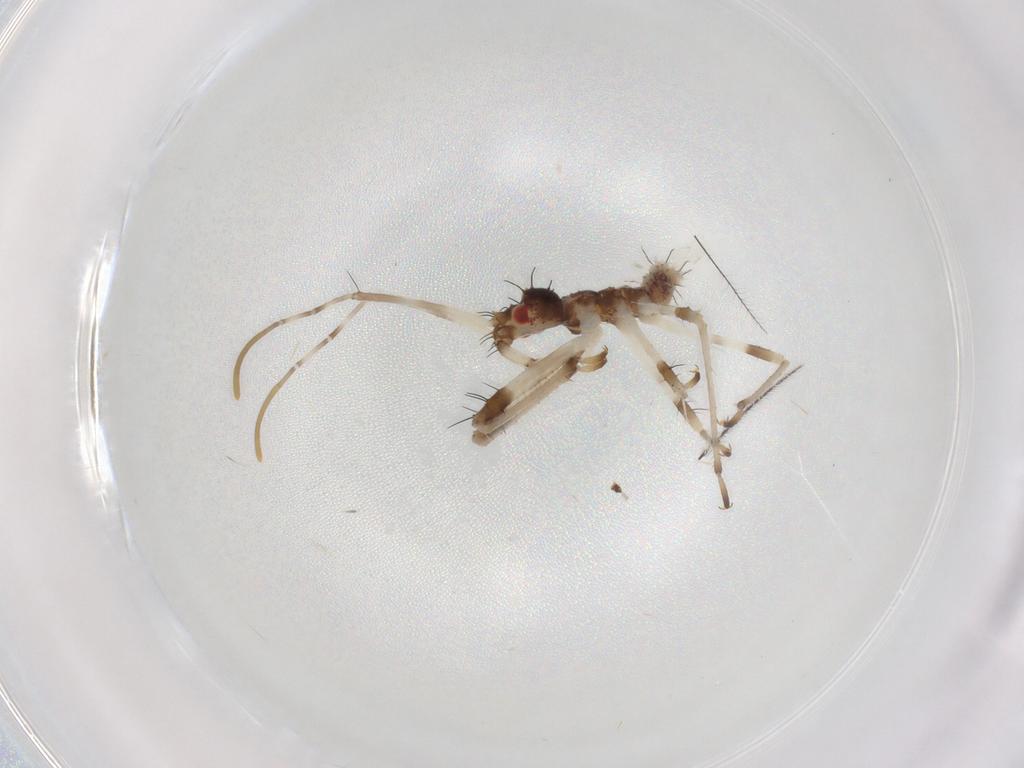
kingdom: Animalia
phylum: Arthropoda
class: Insecta
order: Hemiptera
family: Reduviidae
